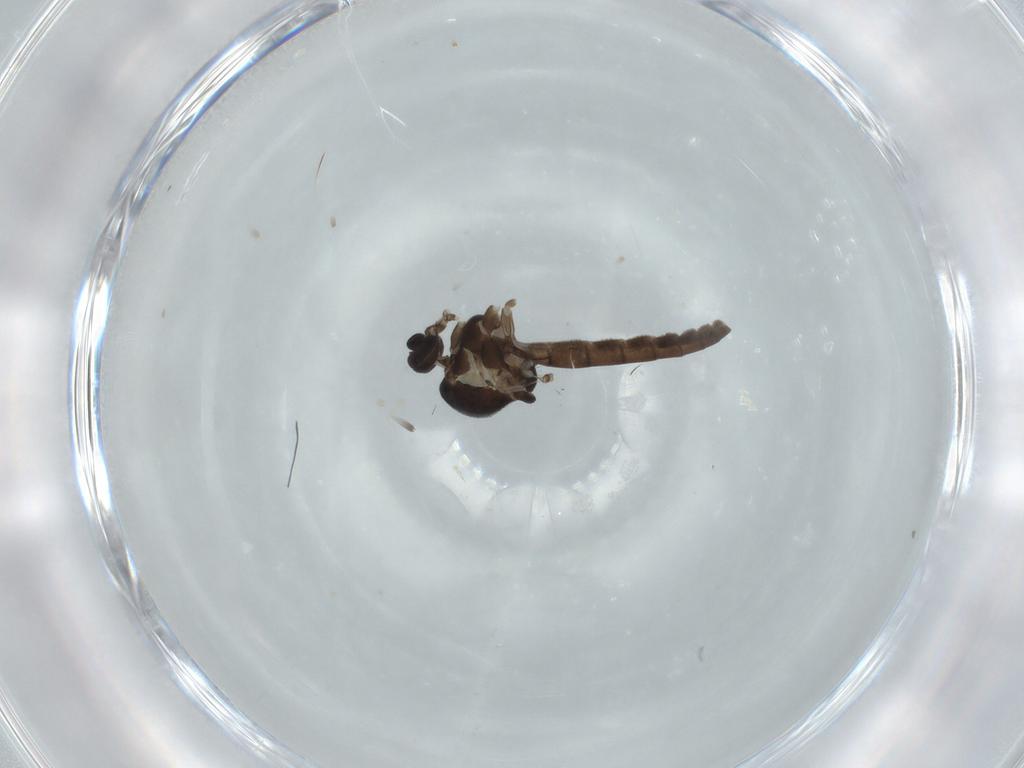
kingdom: Animalia
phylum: Arthropoda
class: Insecta
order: Diptera
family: Ceratopogonidae
